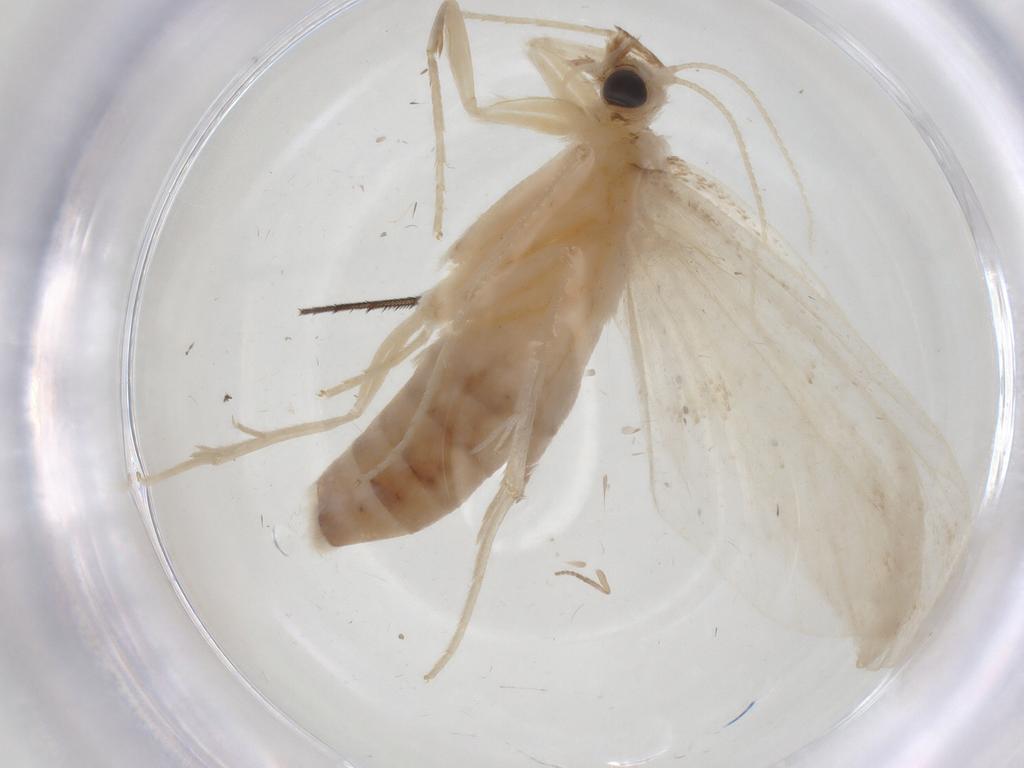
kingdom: Animalia
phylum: Arthropoda
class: Insecta
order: Lepidoptera
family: Crambidae
